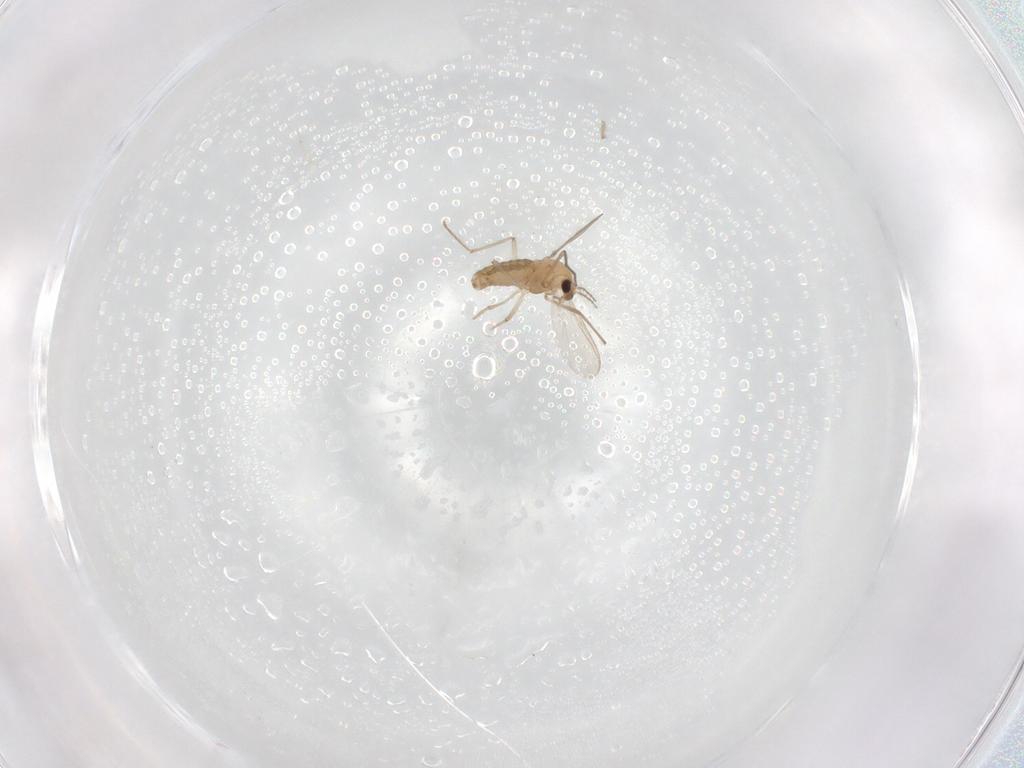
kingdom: Animalia
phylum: Arthropoda
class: Insecta
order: Diptera
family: Chironomidae
